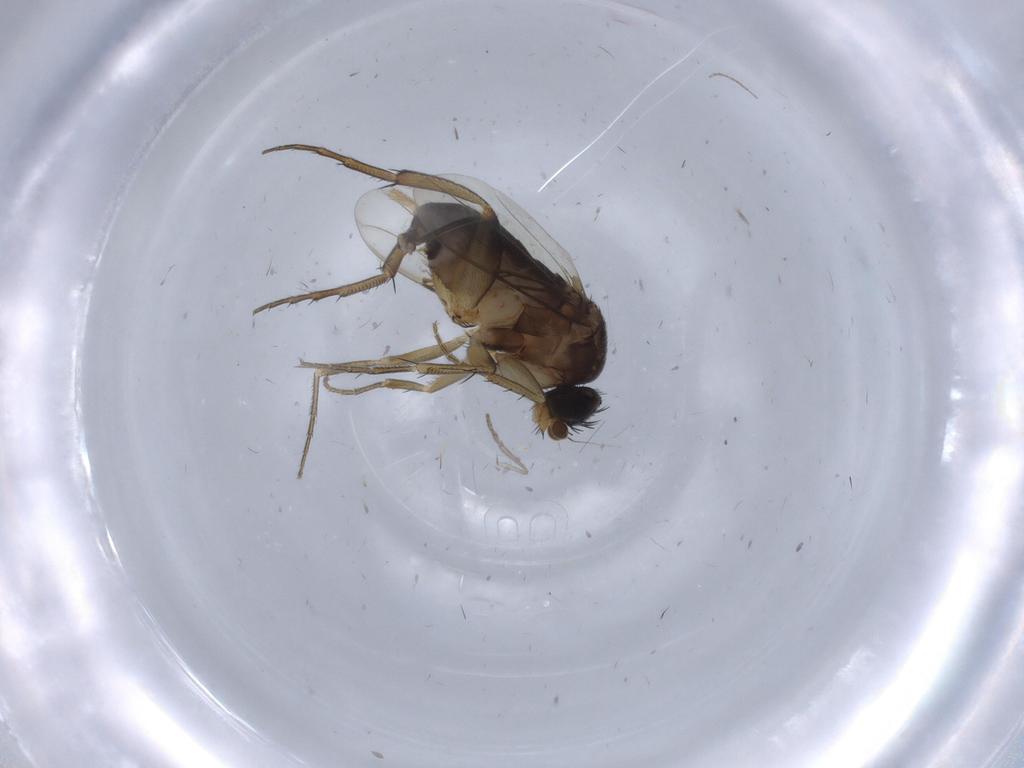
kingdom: Animalia
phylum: Arthropoda
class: Insecta
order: Diptera
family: Phoridae
